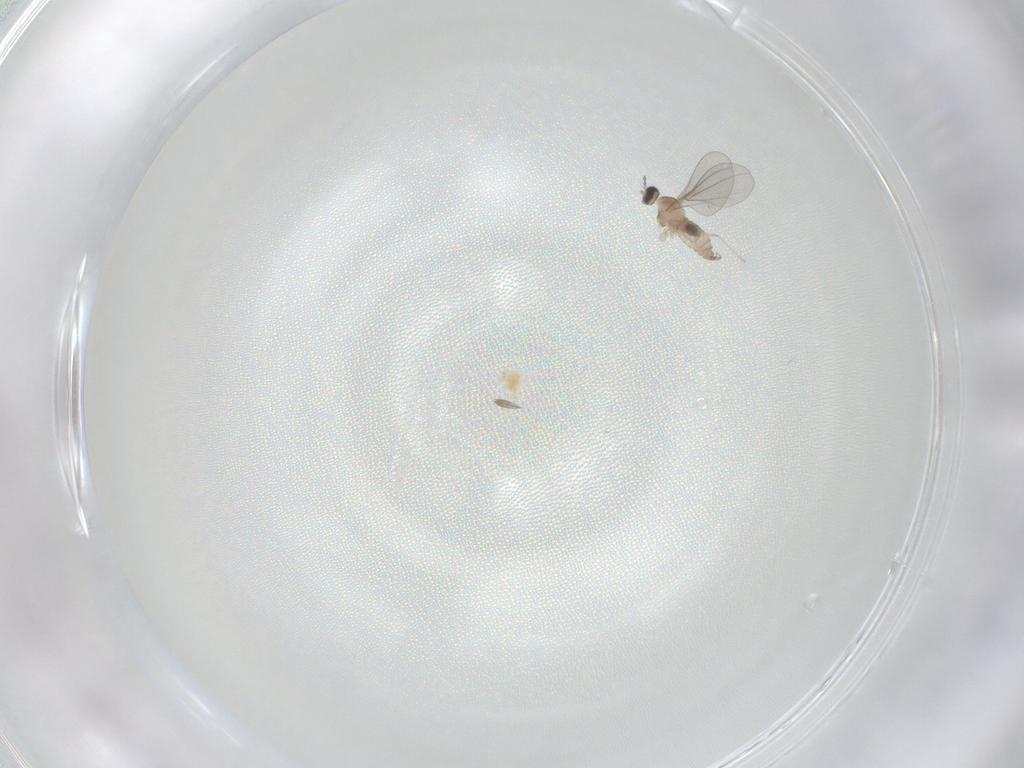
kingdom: Animalia
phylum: Arthropoda
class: Insecta
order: Diptera
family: Cecidomyiidae
